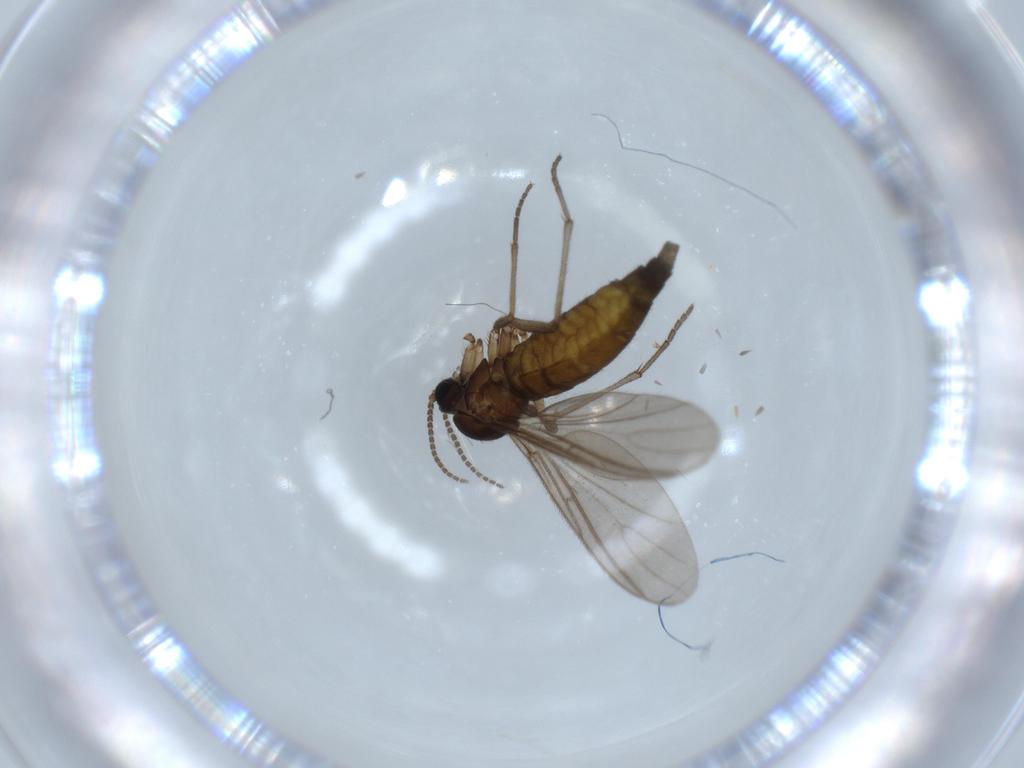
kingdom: Animalia
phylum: Arthropoda
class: Insecta
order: Diptera
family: Sciaridae
